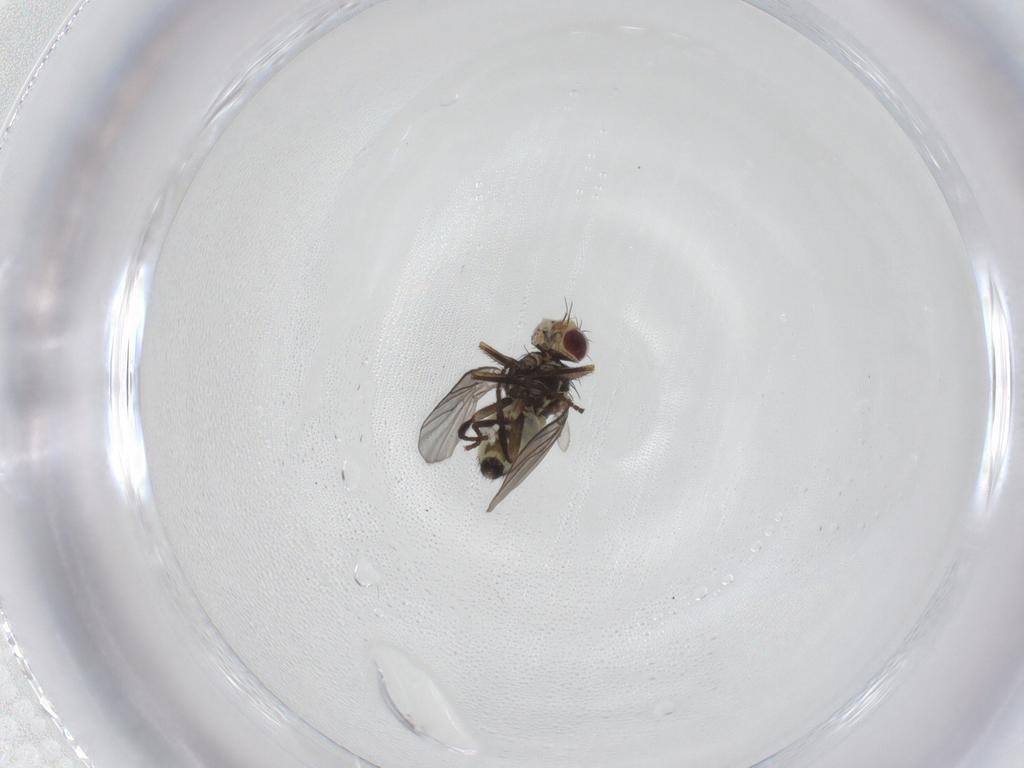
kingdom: Animalia
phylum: Arthropoda
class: Insecta
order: Diptera
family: Agromyzidae
